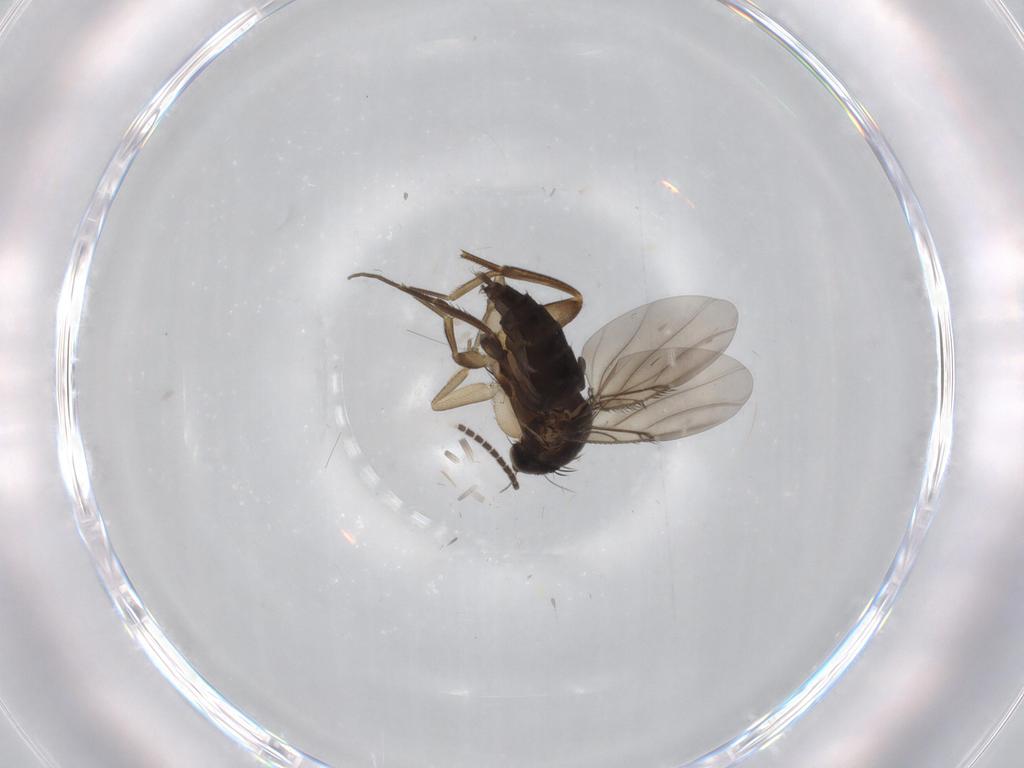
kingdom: Animalia
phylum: Arthropoda
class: Insecta
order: Diptera
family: Phoridae
